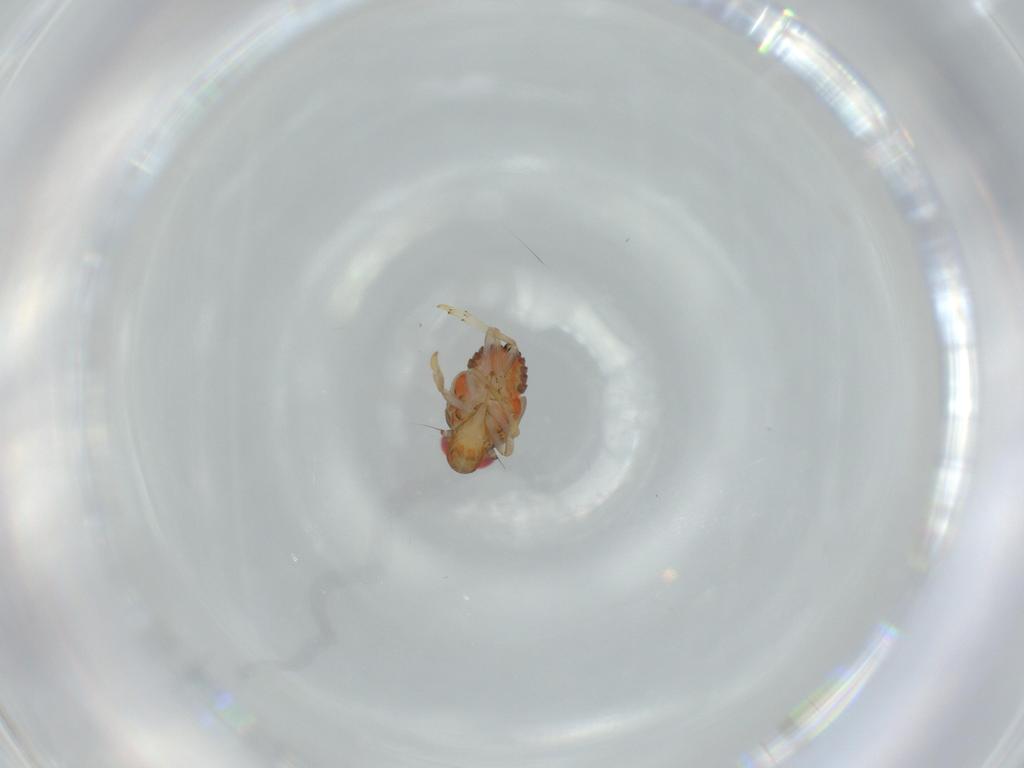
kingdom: Animalia
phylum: Arthropoda
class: Insecta
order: Hemiptera
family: Issidae
